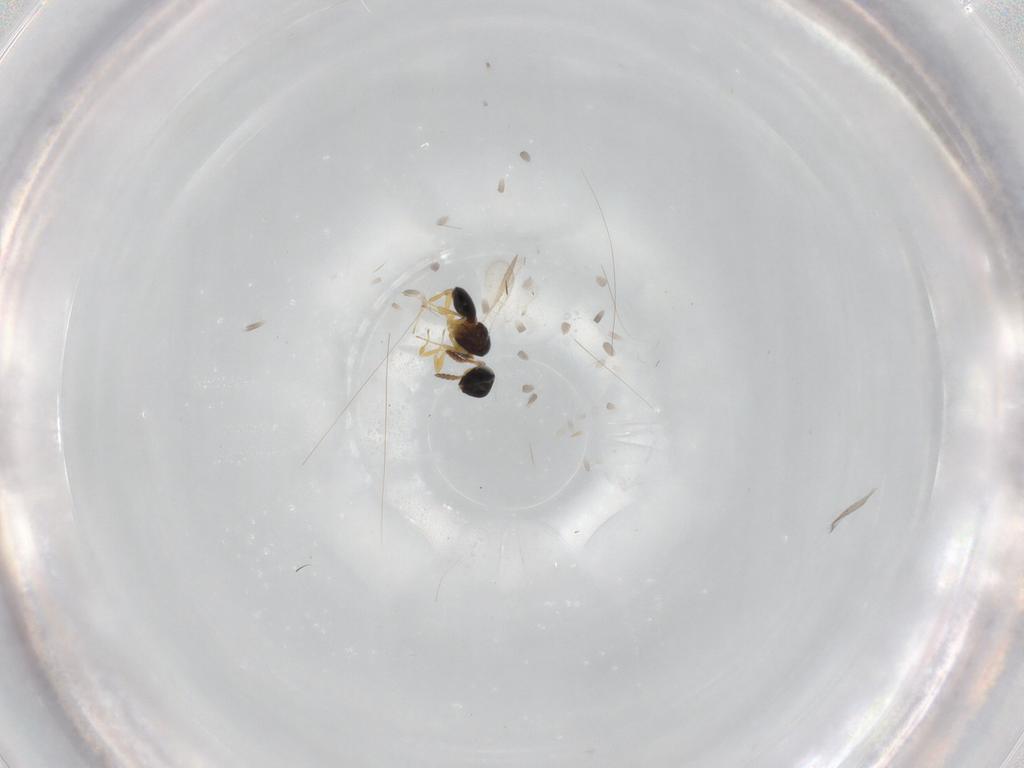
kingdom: Animalia
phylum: Arthropoda
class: Insecta
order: Hymenoptera
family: Scelionidae
